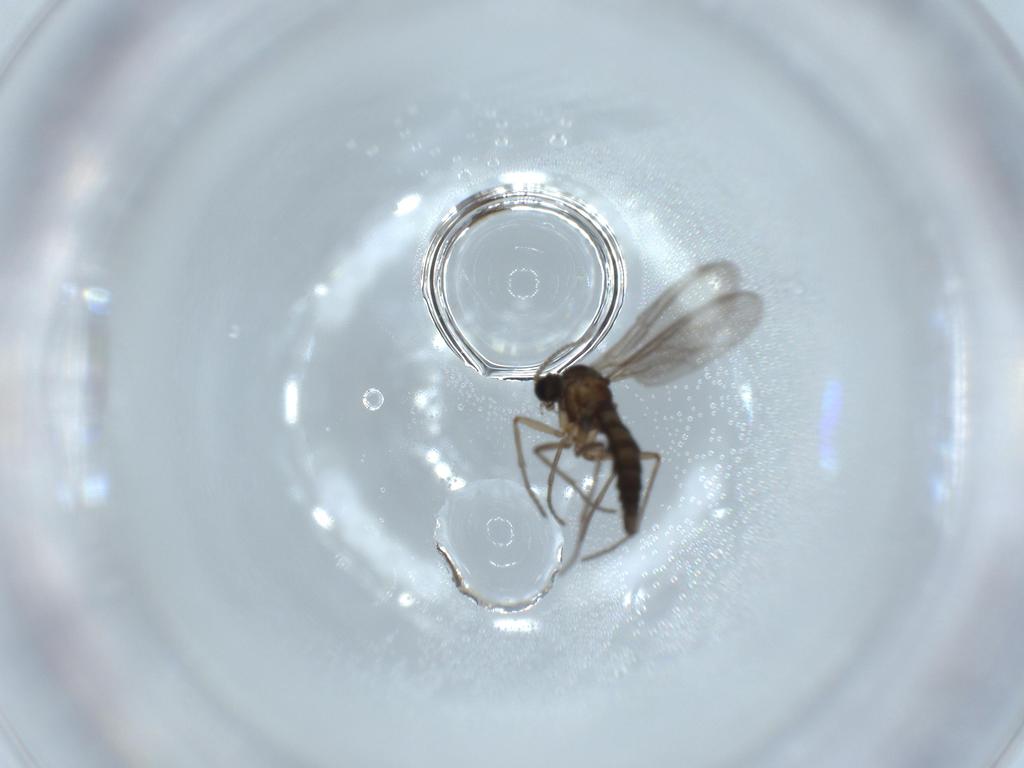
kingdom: Animalia
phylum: Arthropoda
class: Insecta
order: Diptera
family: Sciaridae
